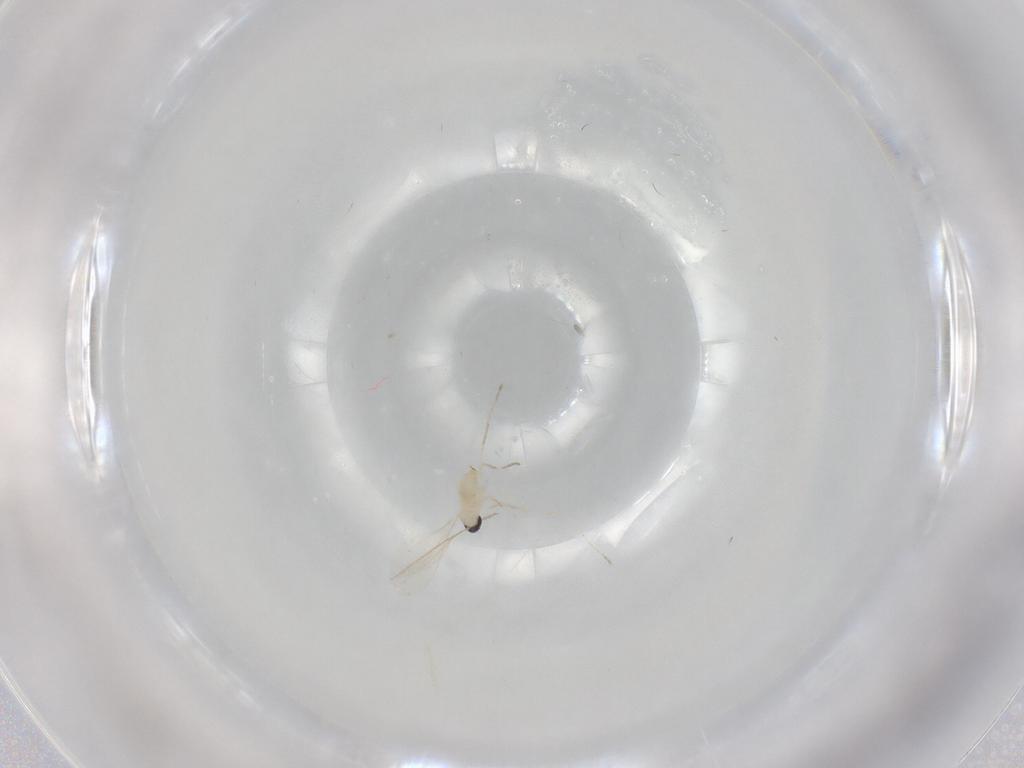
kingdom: Animalia
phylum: Arthropoda
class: Insecta
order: Diptera
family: Cecidomyiidae
